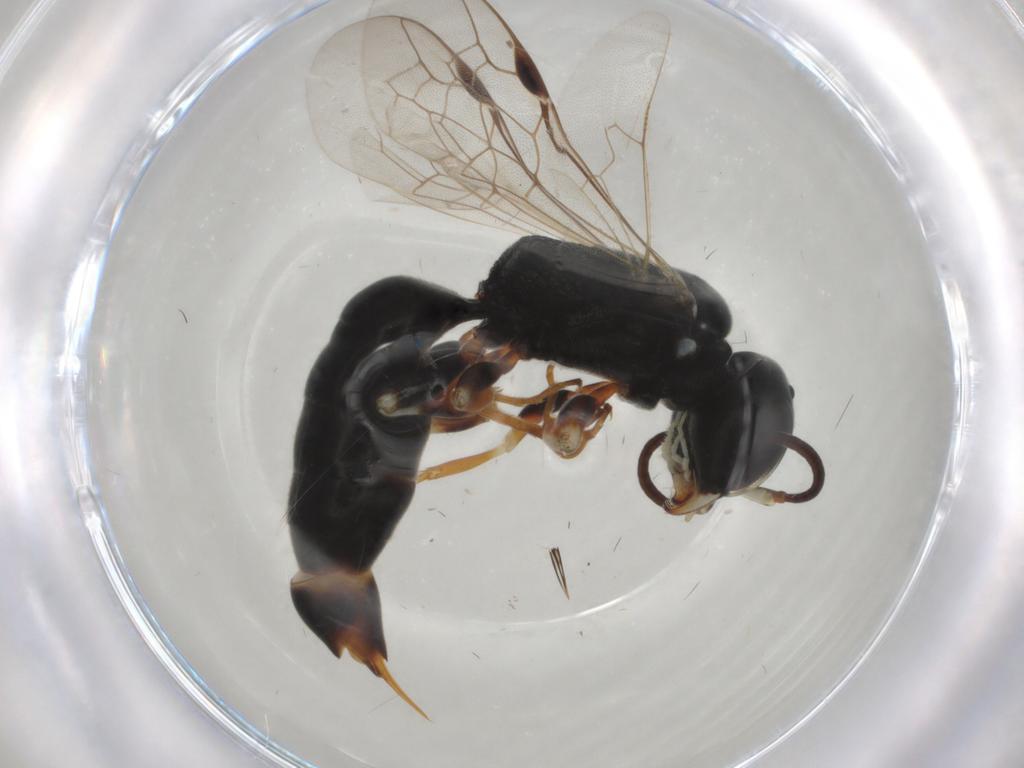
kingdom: Animalia
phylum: Arthropoda
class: Insecta
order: Hymenoptera
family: Pemphredonidae
